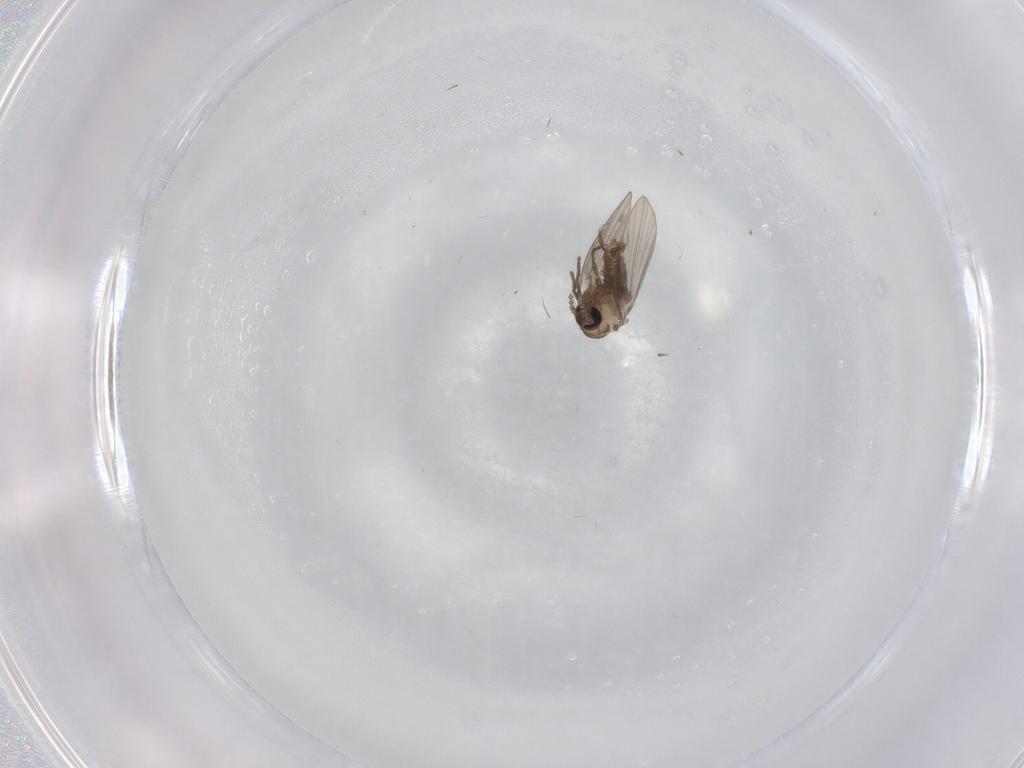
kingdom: Animalia
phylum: Arthropoda
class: Insecta
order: Diptera
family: Psychodidae
